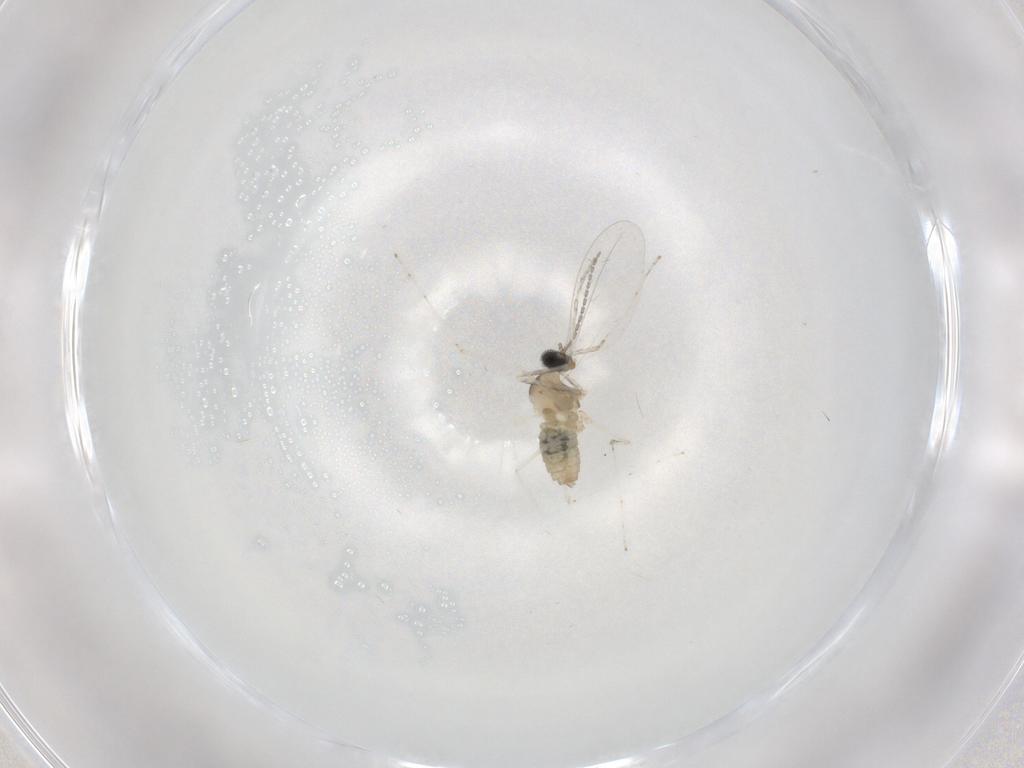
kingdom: Animalia
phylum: Arthropoda
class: Insecta
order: Diptera
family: Cecidomyiidae
